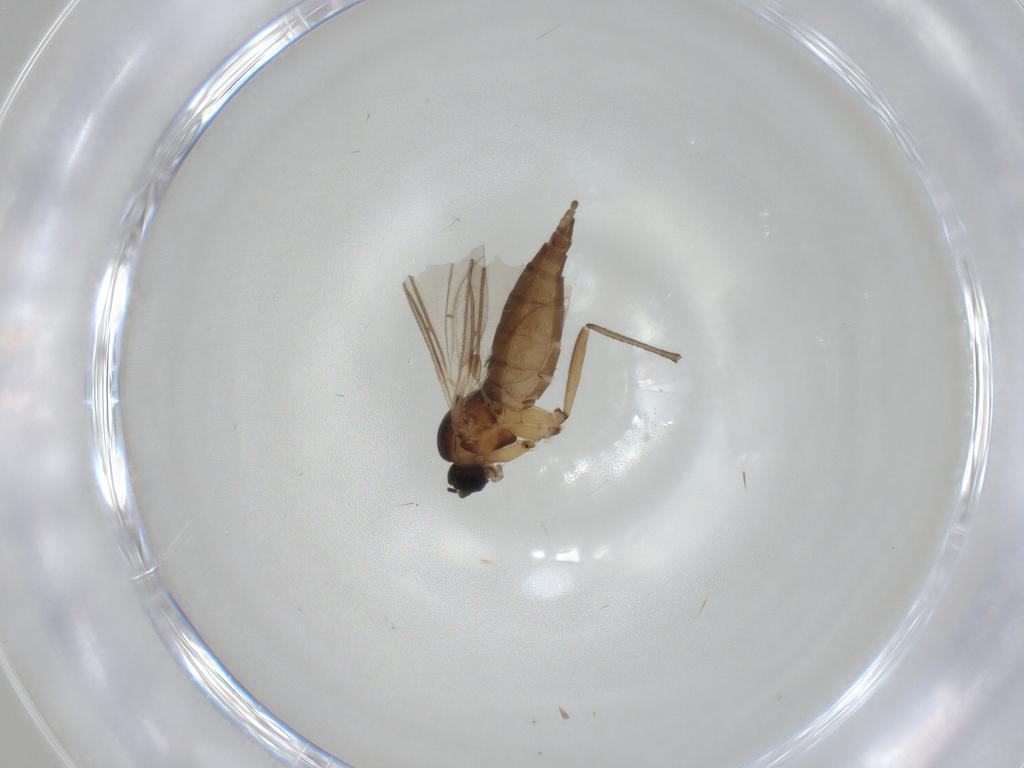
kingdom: Animalia
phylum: Arthropoda
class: Insecta
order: Diptera
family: Sciaridae
